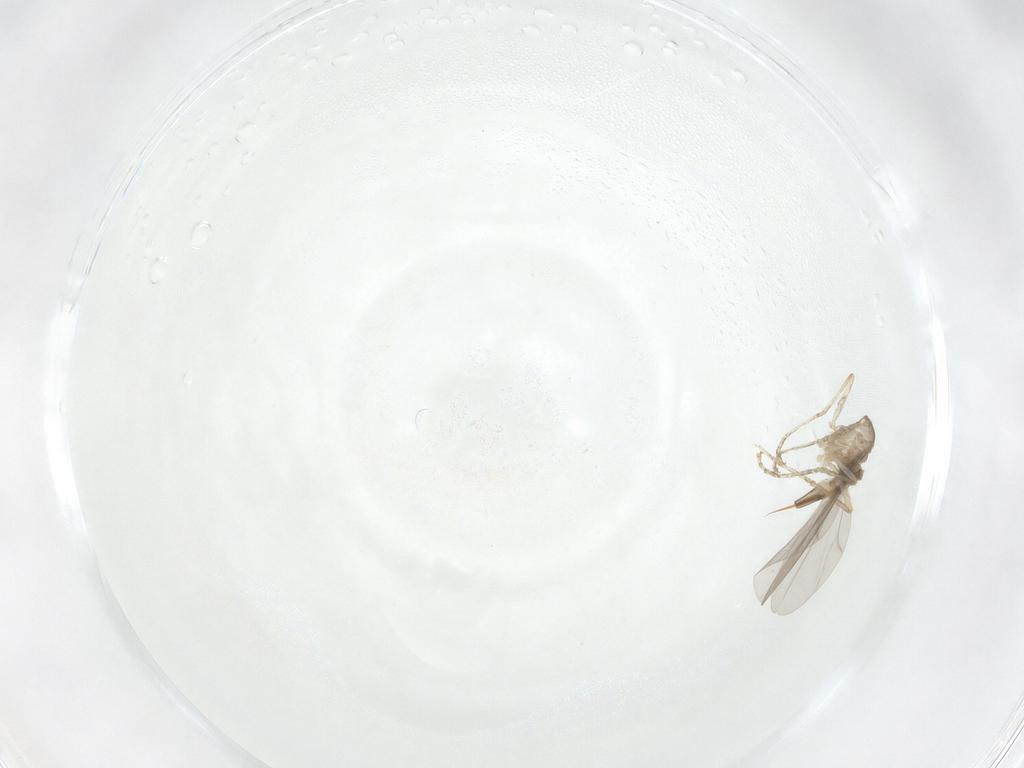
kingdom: Animalia
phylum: Arthropoda
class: Insecta
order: Diptera
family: Cecidomyiidae
